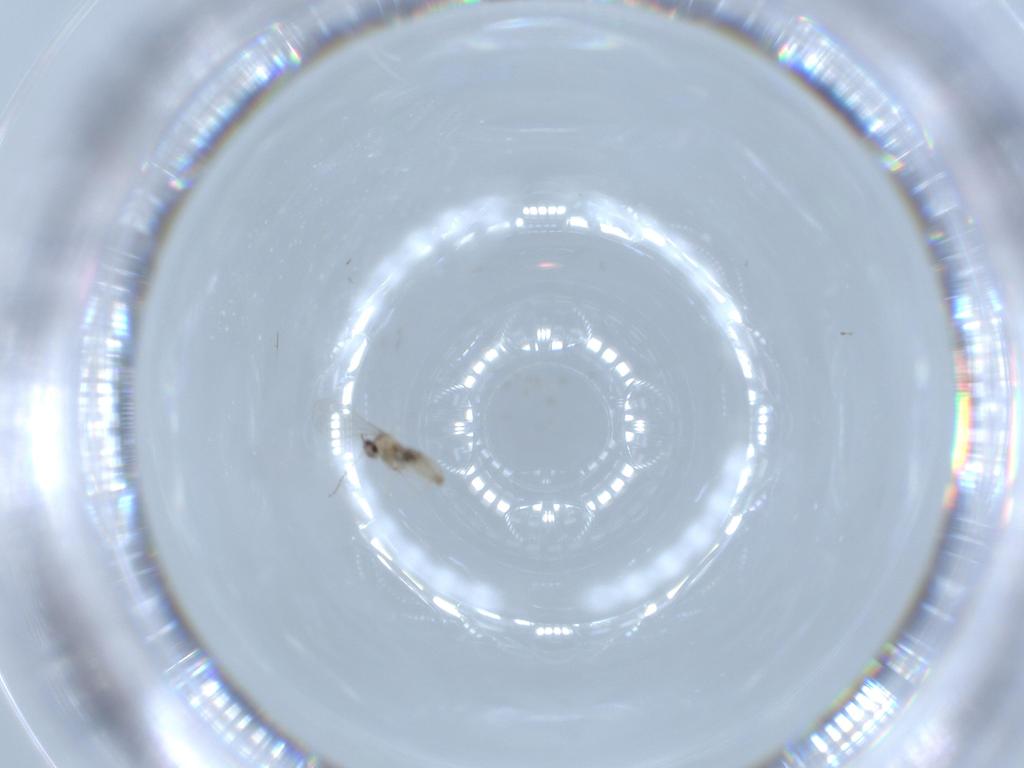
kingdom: Animalia
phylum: Arthropoda
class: Insecta
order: Diptera
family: Cecidomyiidae
